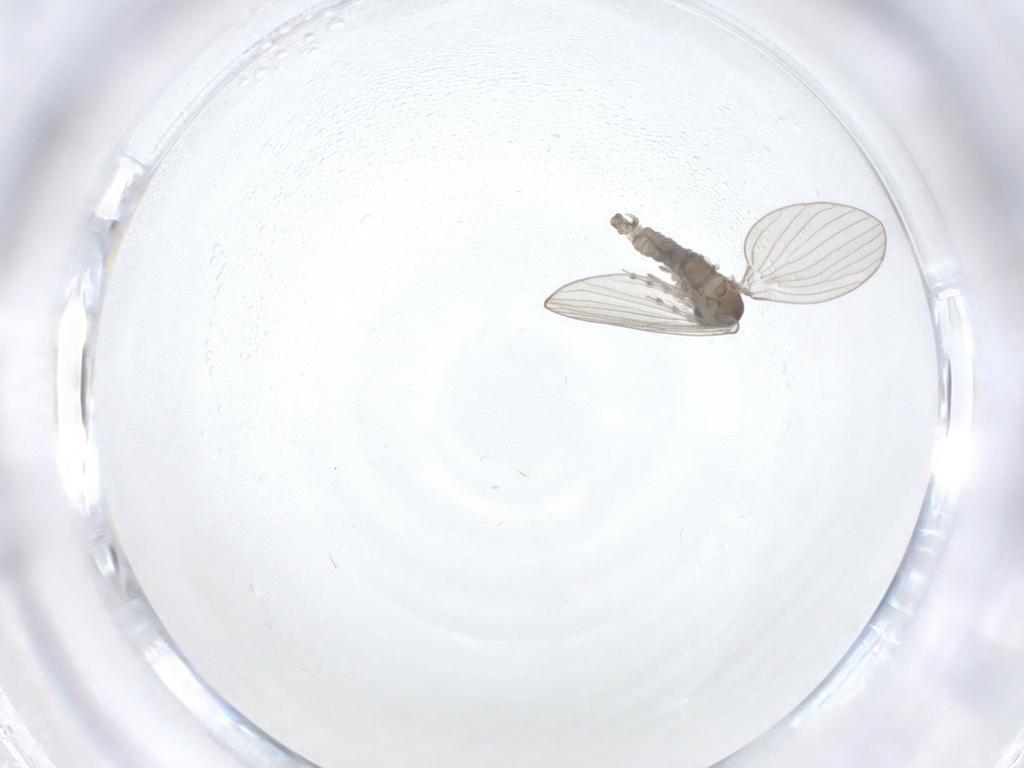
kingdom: Animalia
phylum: Arthropoda
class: Insecta
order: Diptera
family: Psychodidae
